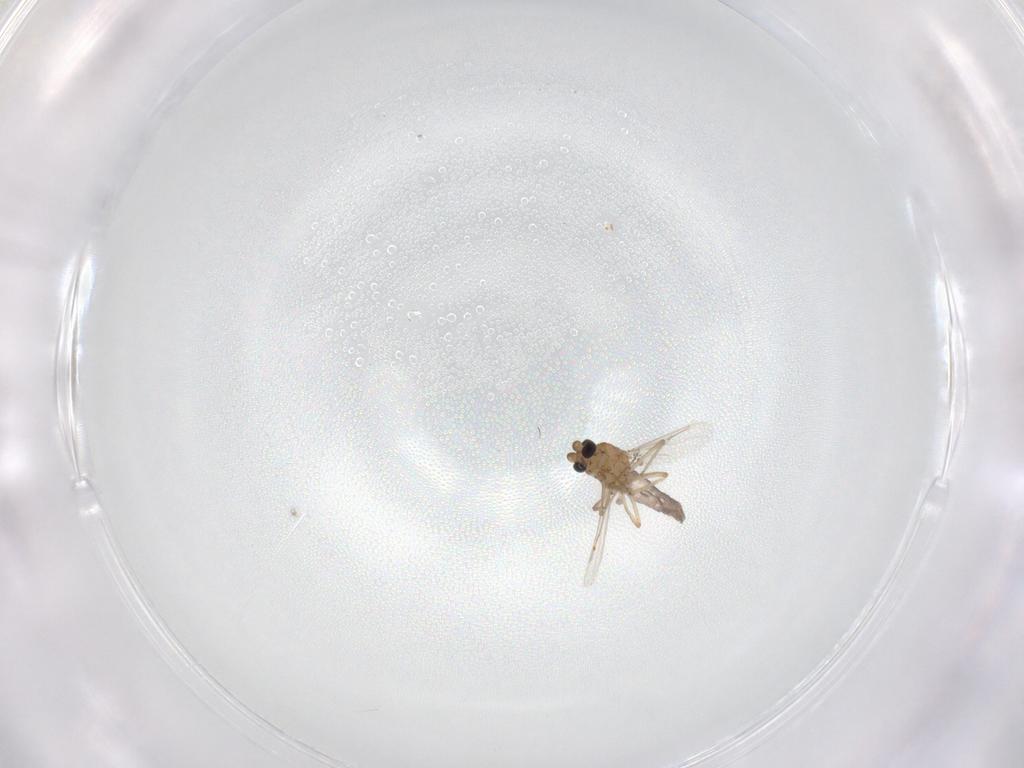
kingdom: Animalia
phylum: Arthropoda
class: Insecta
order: Diptera
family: Ceratopogonidae
